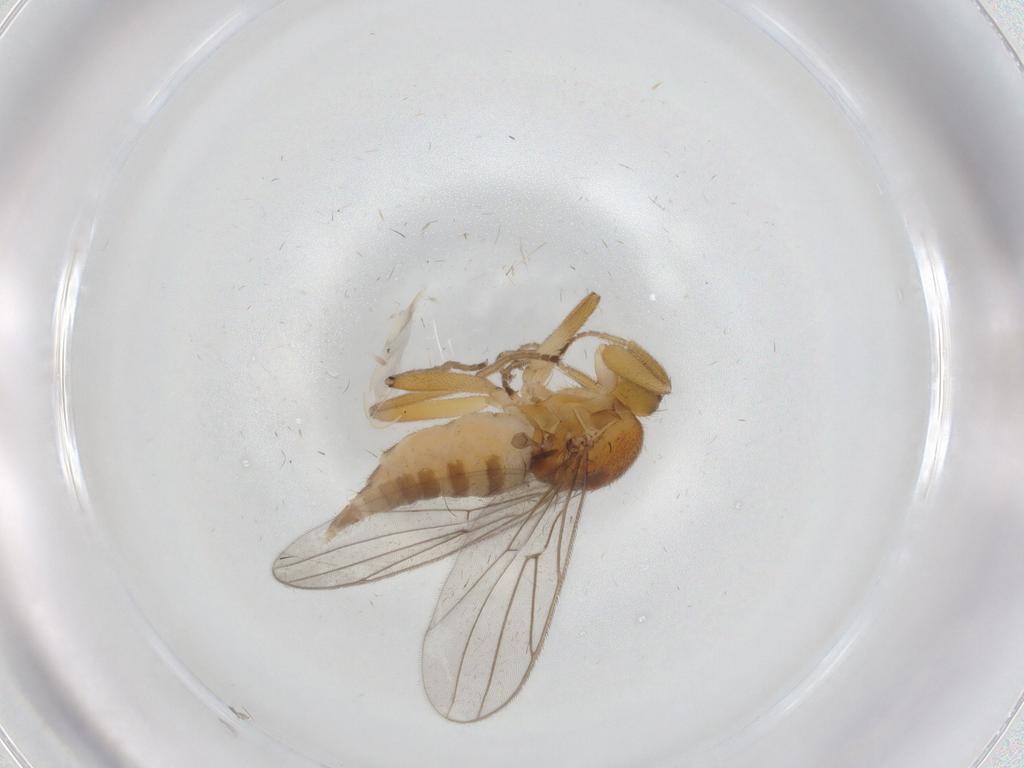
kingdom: Animalia
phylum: Arthropoda
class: Insecta
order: Diptera
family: Hybotidae
